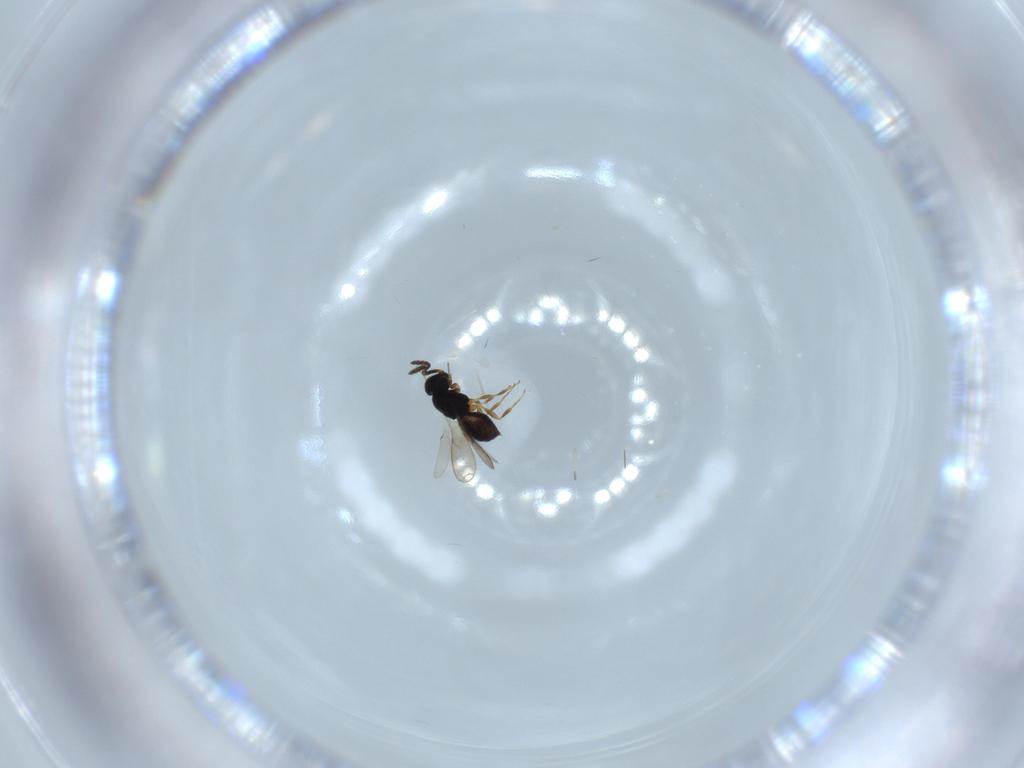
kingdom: Animalia
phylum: Arthropoda
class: Insecta
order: Hymenoptera
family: Scelionidae
